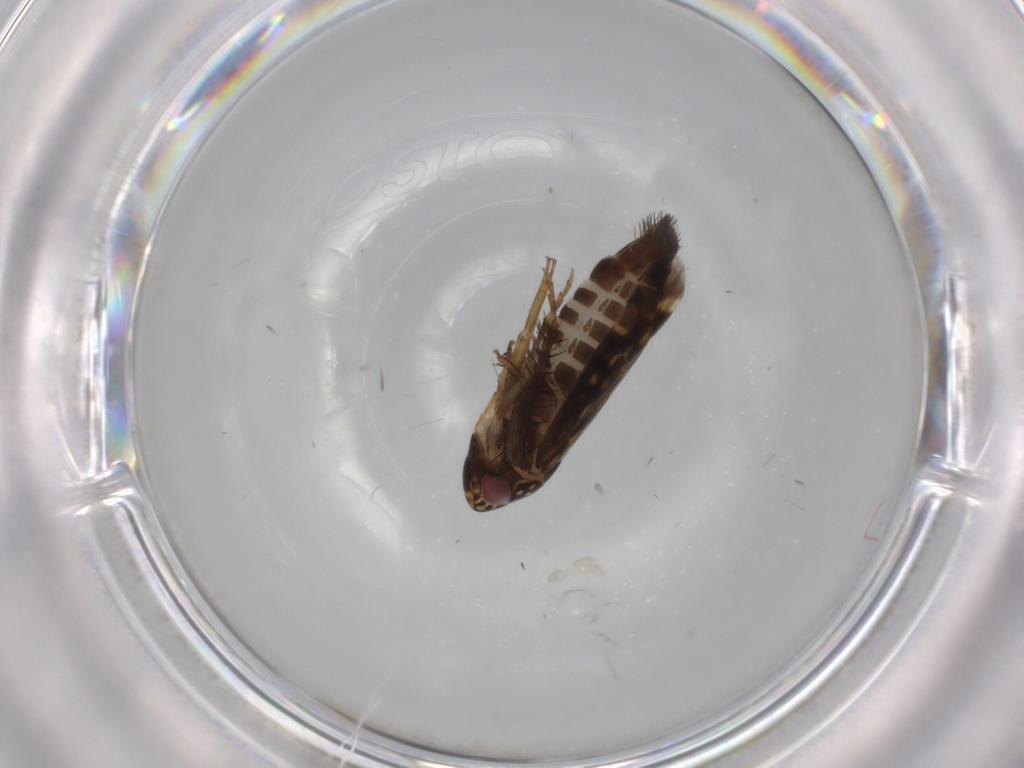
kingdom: Animalia
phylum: Arthropoda
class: Insecta
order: Hemiptera
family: Cicadellidae
